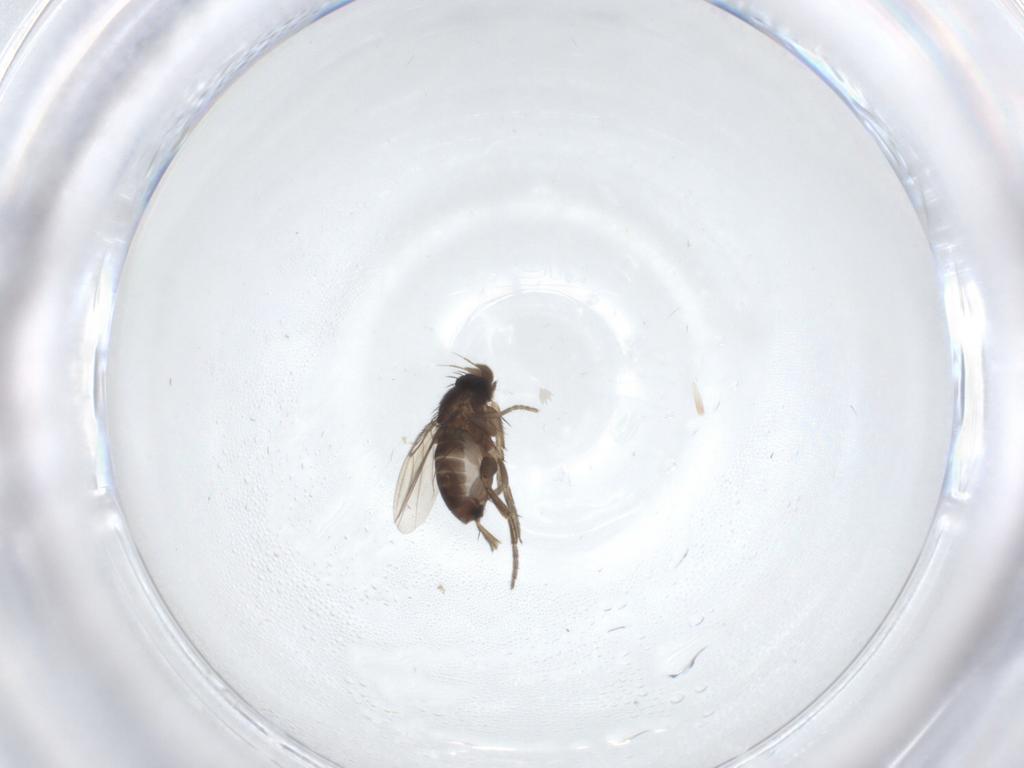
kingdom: Animalia
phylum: Arthropoda
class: Insecta
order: Diptera
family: Phoridae
